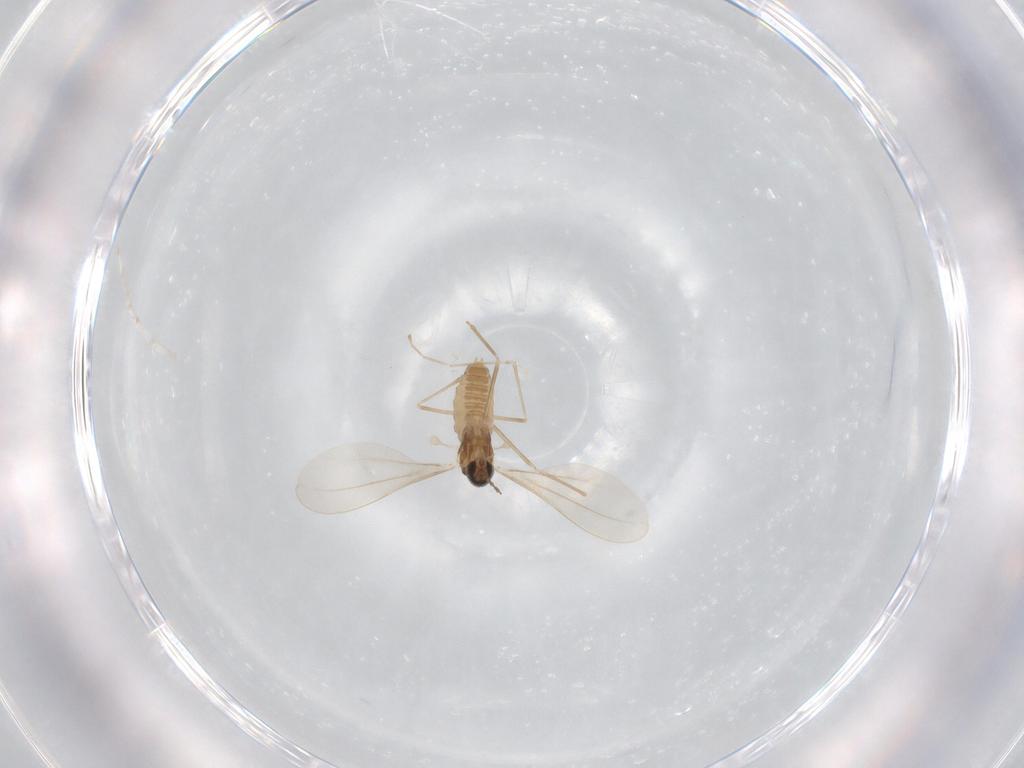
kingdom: Animalia
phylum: Arthropoda
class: Insecta
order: Diptera
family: Cecidomyiidae
